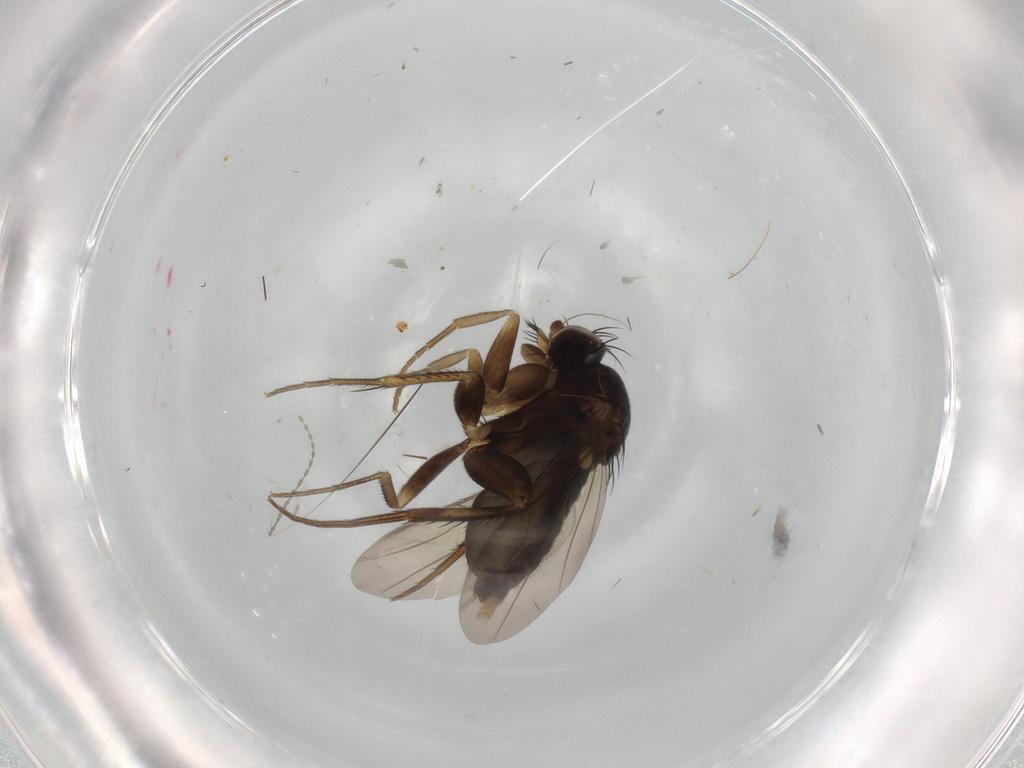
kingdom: Animalia
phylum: Arthropoda
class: Insecta
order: Diptera
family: Phoridae
